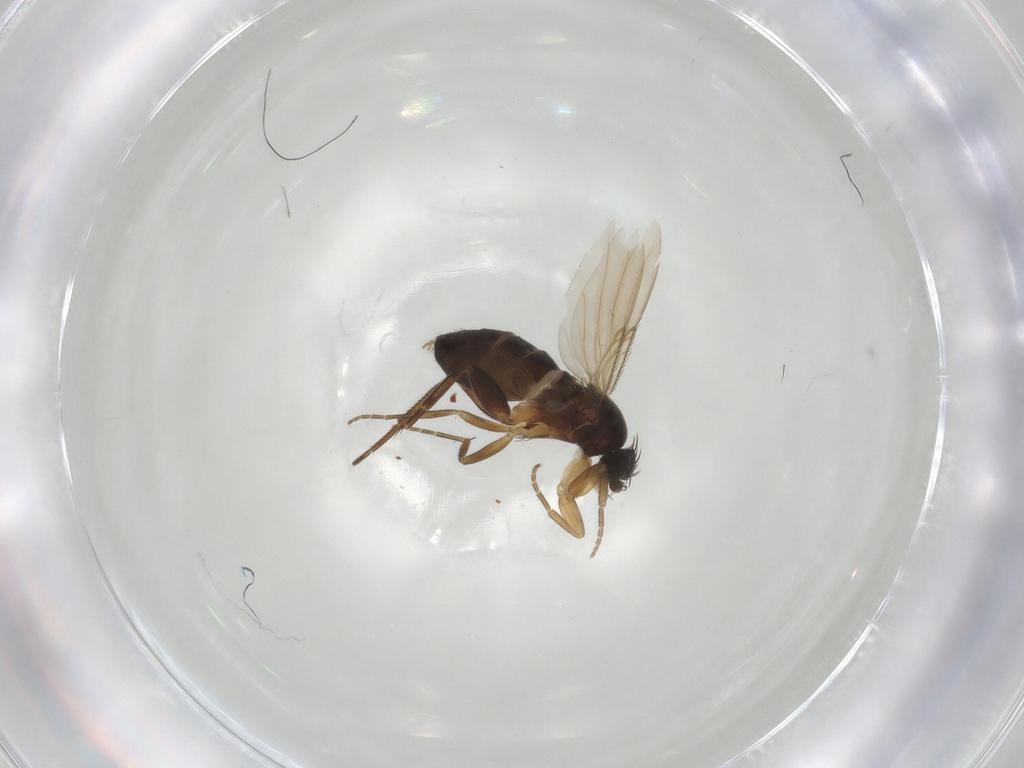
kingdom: Animalia
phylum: Arthropoda
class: Insecta
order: Diptera
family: Phoridae
